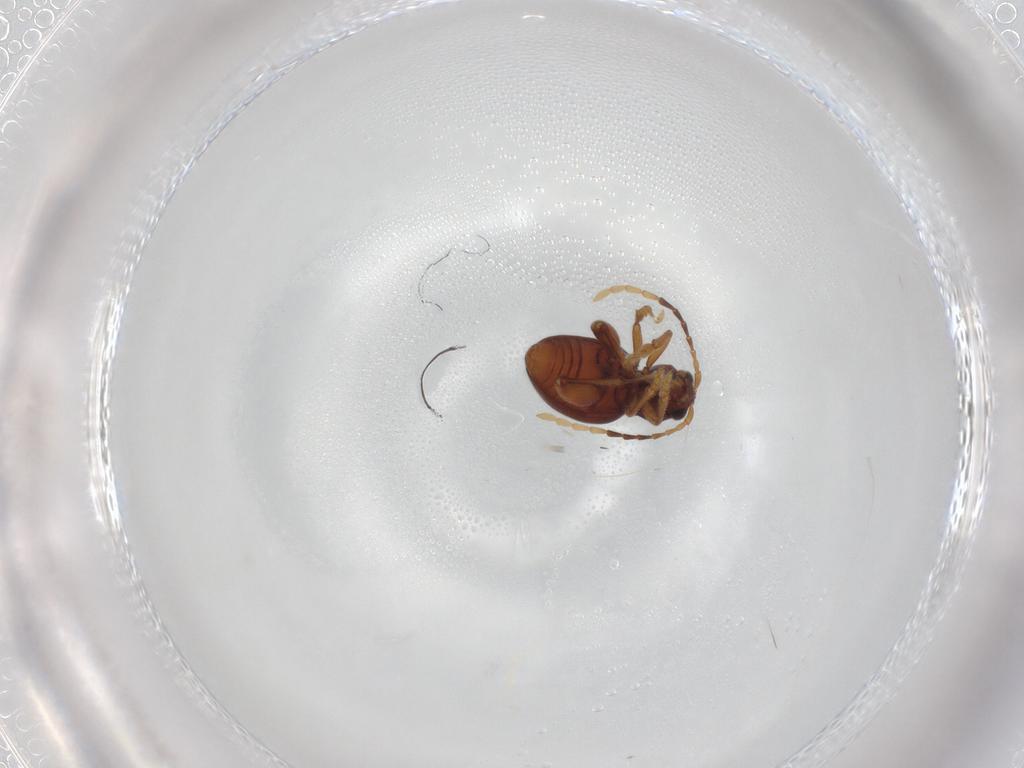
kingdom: Animalia
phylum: Arthropoda
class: Insecta
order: Coleoptera
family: Chrysomelidae
